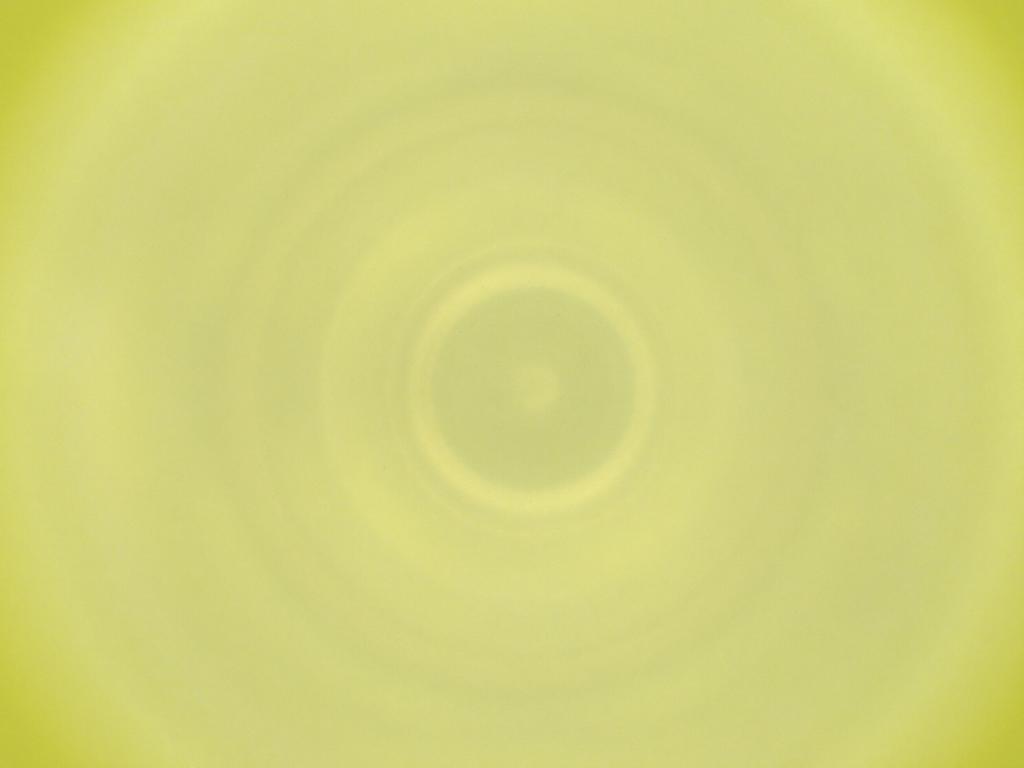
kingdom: Animalia
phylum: Arthropoda
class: Insecta
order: Diptera
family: Cecidomyiidae
